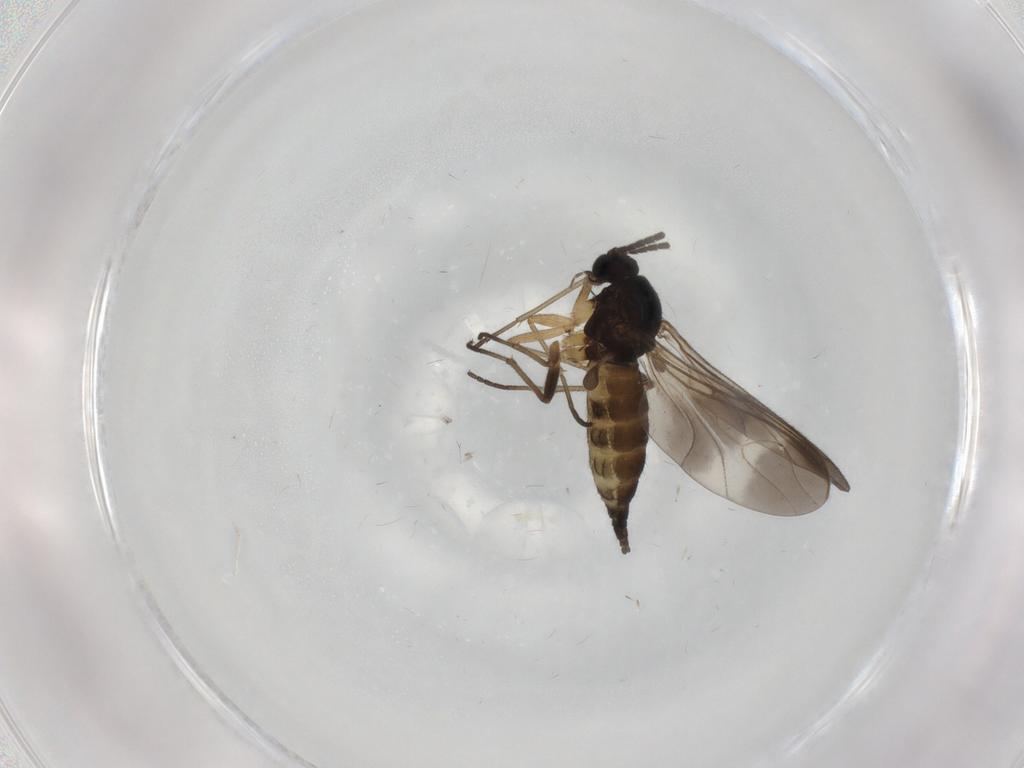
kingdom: Animalia
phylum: Arthropoda
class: Insecta
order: Diptera
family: Sciaridae
